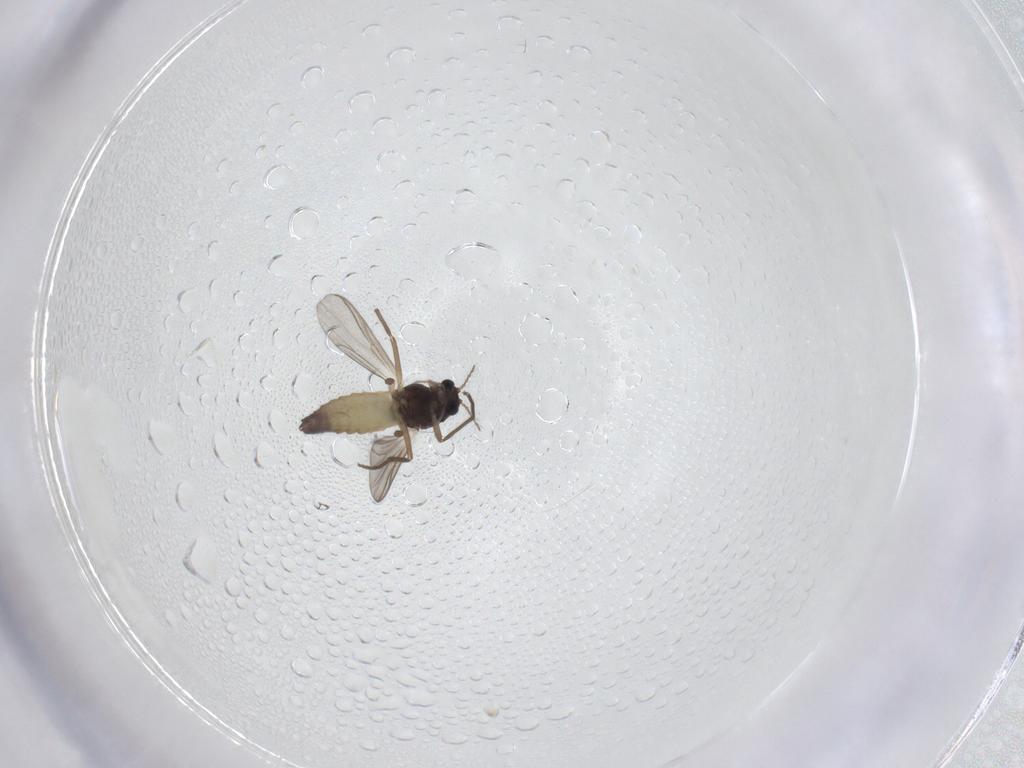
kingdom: Animalia
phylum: Arthropoda
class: Insecta
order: Diptera
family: Chironomidae
